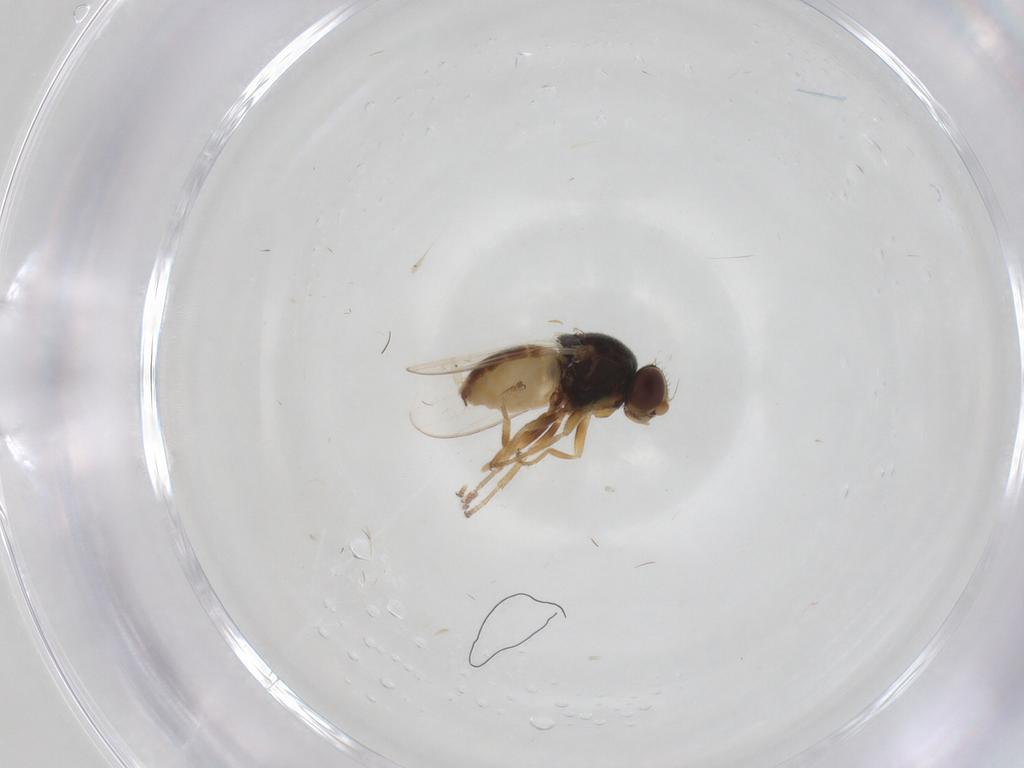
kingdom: Animalia
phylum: Arthropoda
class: Insecta
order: Diptera
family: Chloropidae
